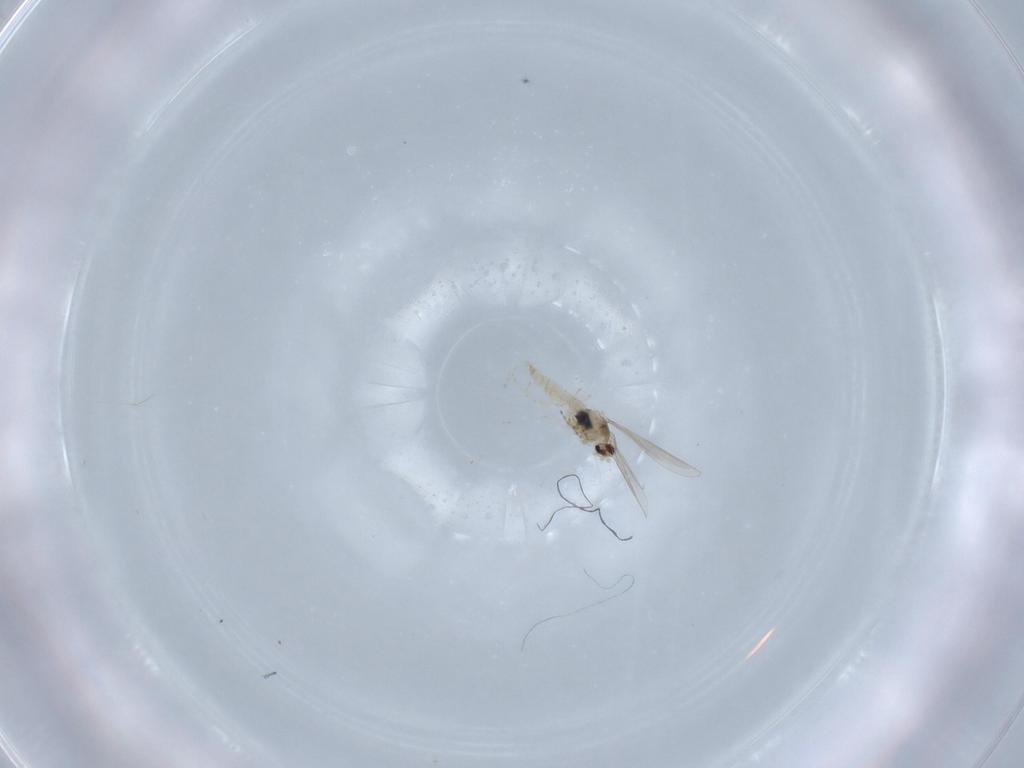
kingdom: Animalia
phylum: Arthropoda
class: Insecta
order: Diptera
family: Cecidomyiidae
